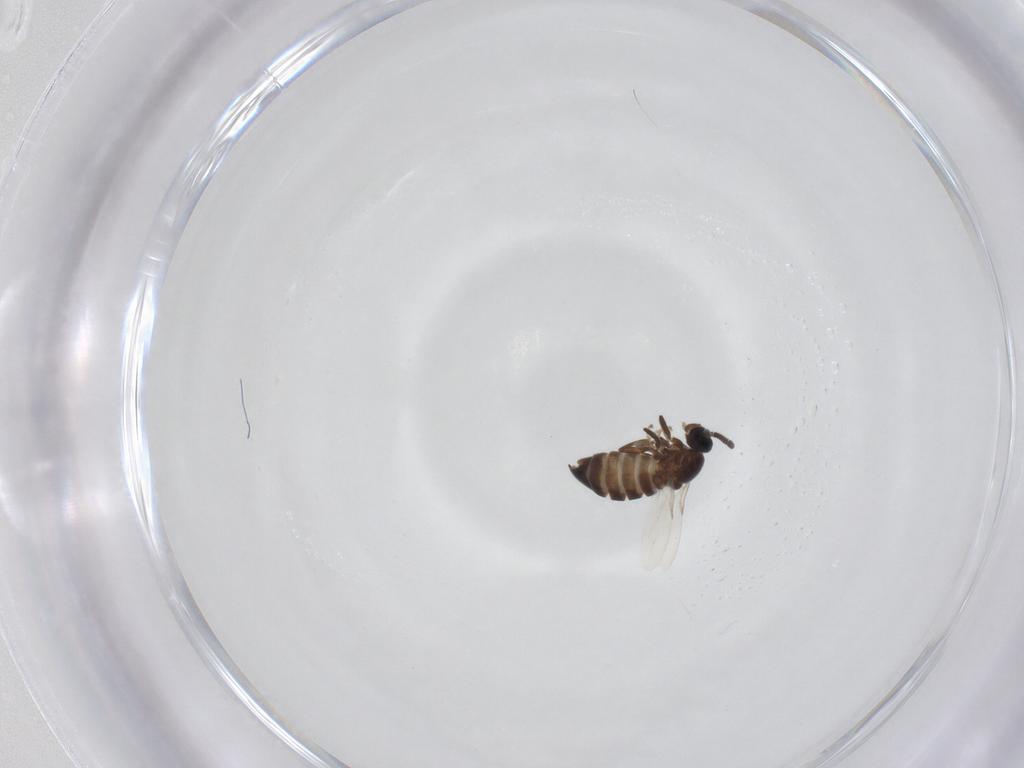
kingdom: Animalia
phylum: Arthropoda
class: Insecta
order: Diptera
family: Scatopsidae
